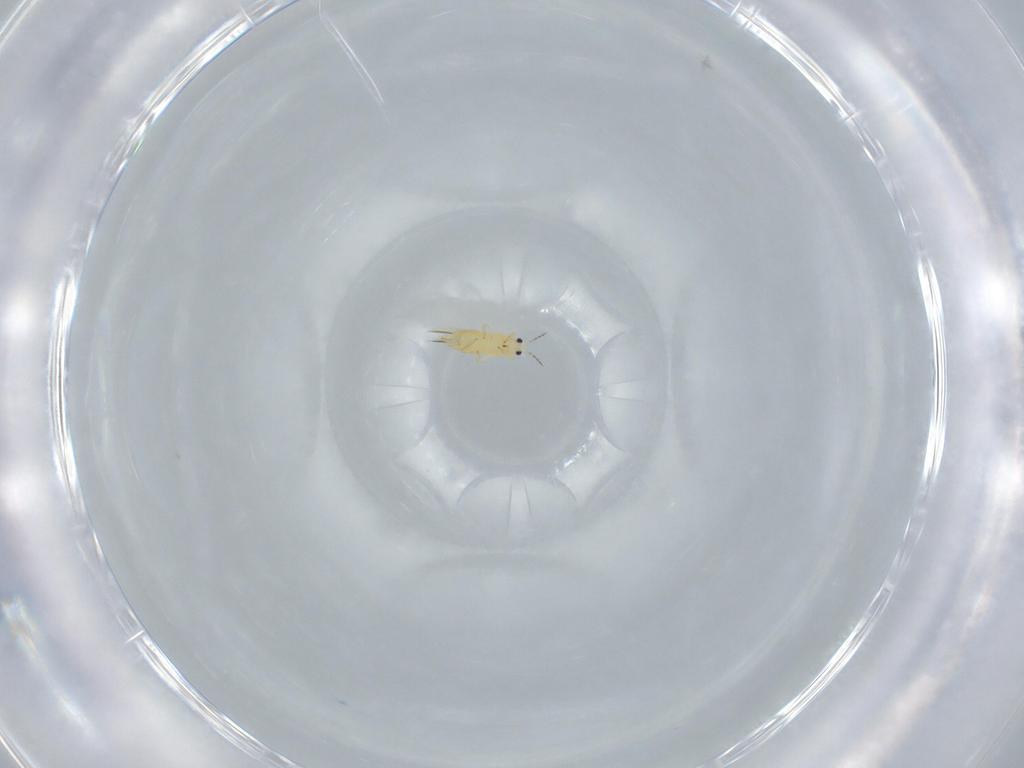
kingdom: Animalia
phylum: Arthropoda
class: Insecta
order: Thysanoptera
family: Thripidae
